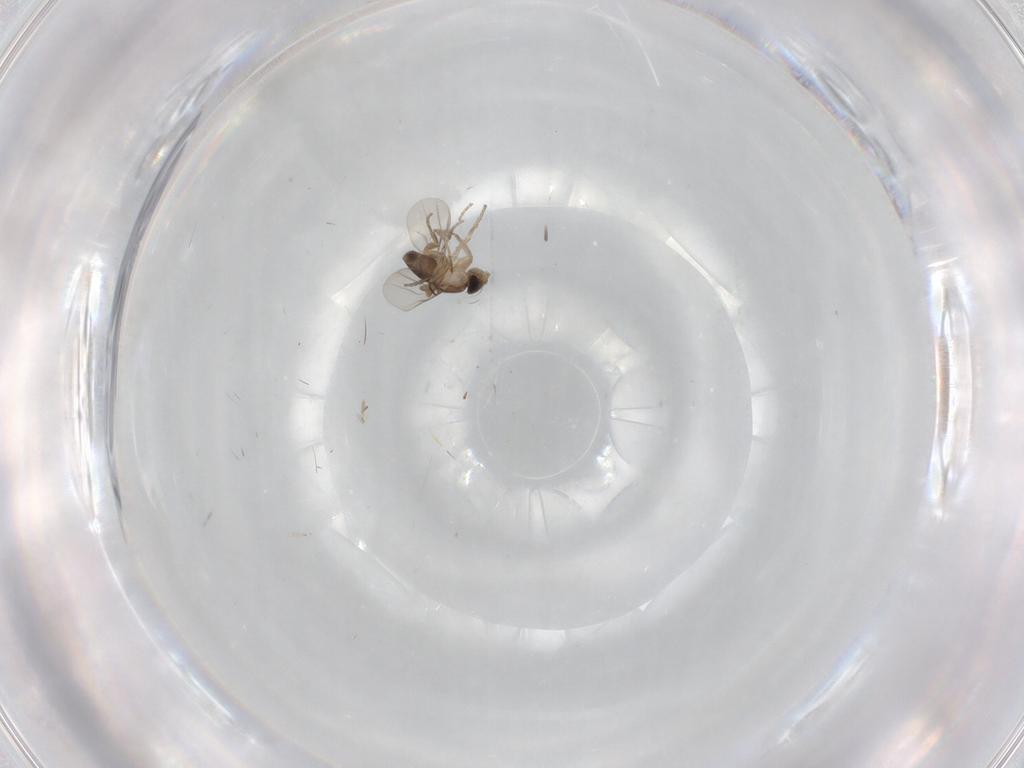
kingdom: Animalia
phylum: Arthropoda
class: Insecta
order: Diptera
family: Phoridae
